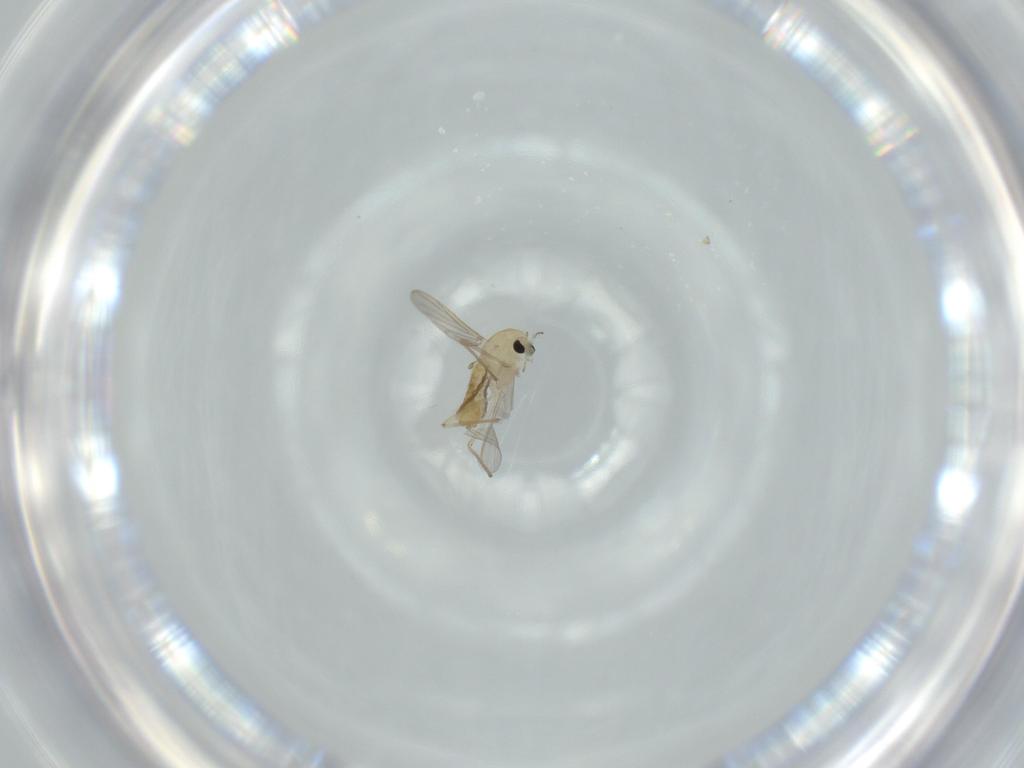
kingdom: Animalia
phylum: Arthropoda
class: Insecta
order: Diptera
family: Chironomidae
